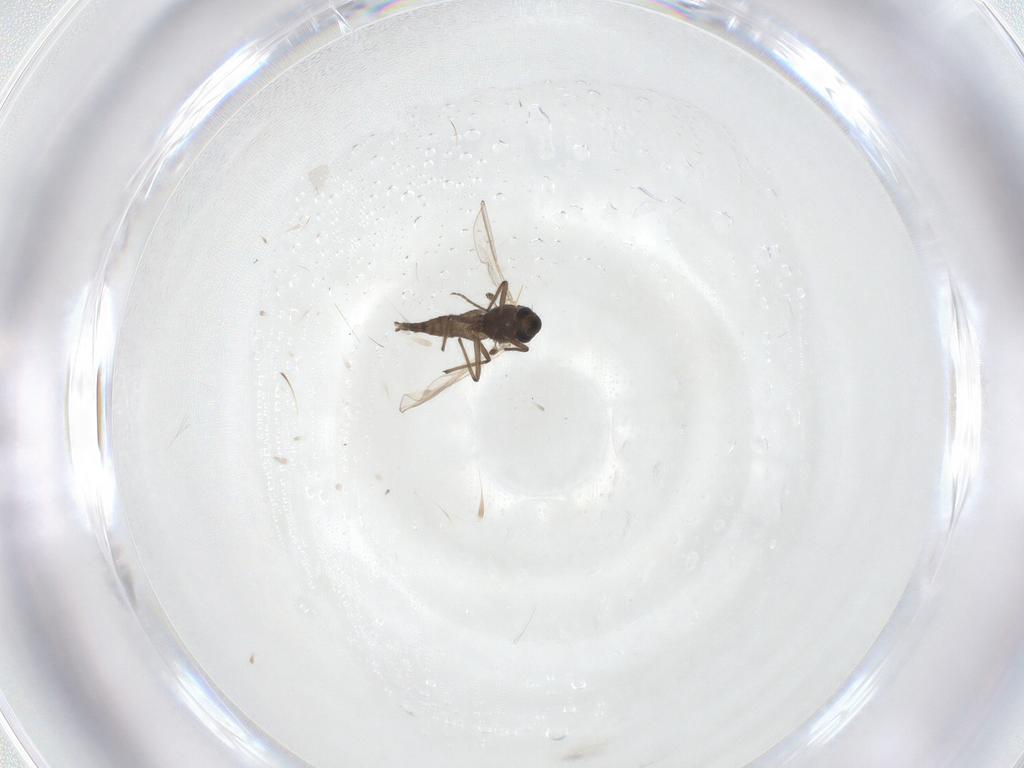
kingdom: Animalia
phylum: Arthropoda
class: Insecta
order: Diptera
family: Chironomidae
